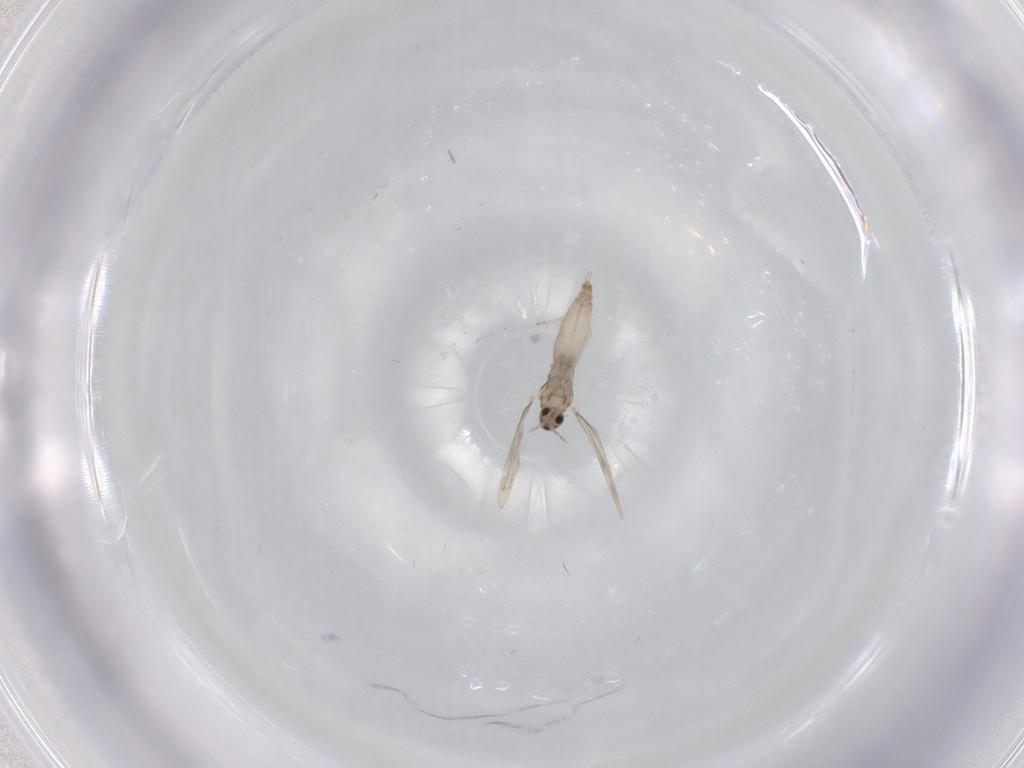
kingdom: Animalia
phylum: Arthropoda
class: Insecta
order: Diptera
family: Cecidomyiidae
